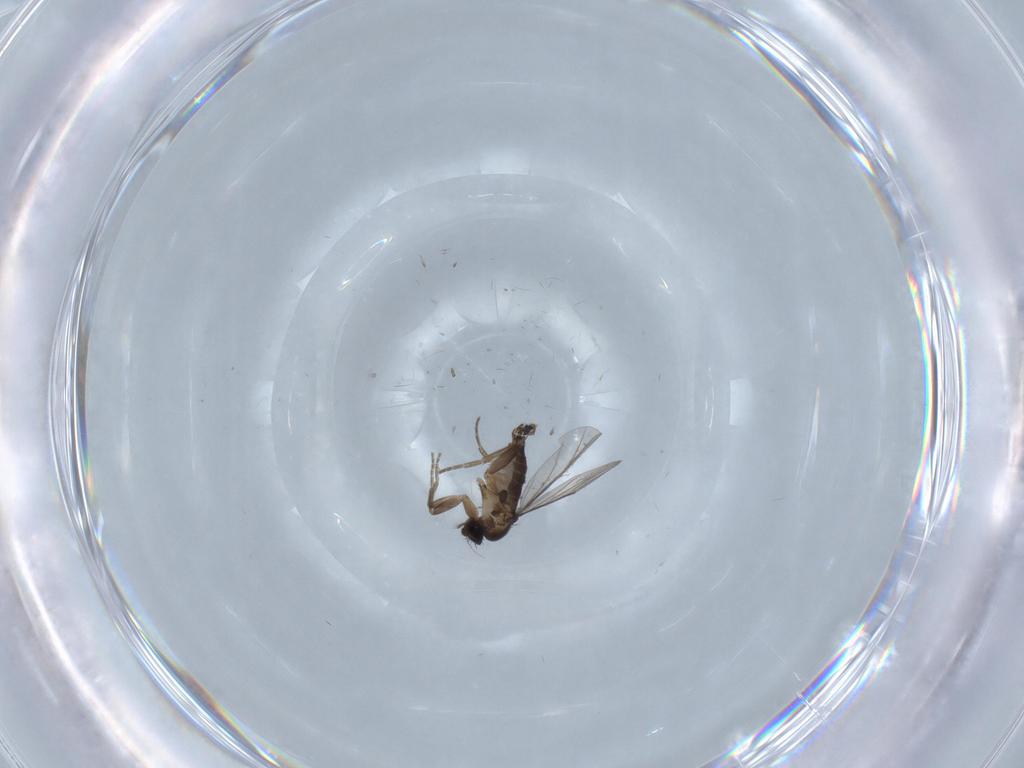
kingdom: Animalia
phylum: Arthropoda
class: Insecta
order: Diptera
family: Phoridae
